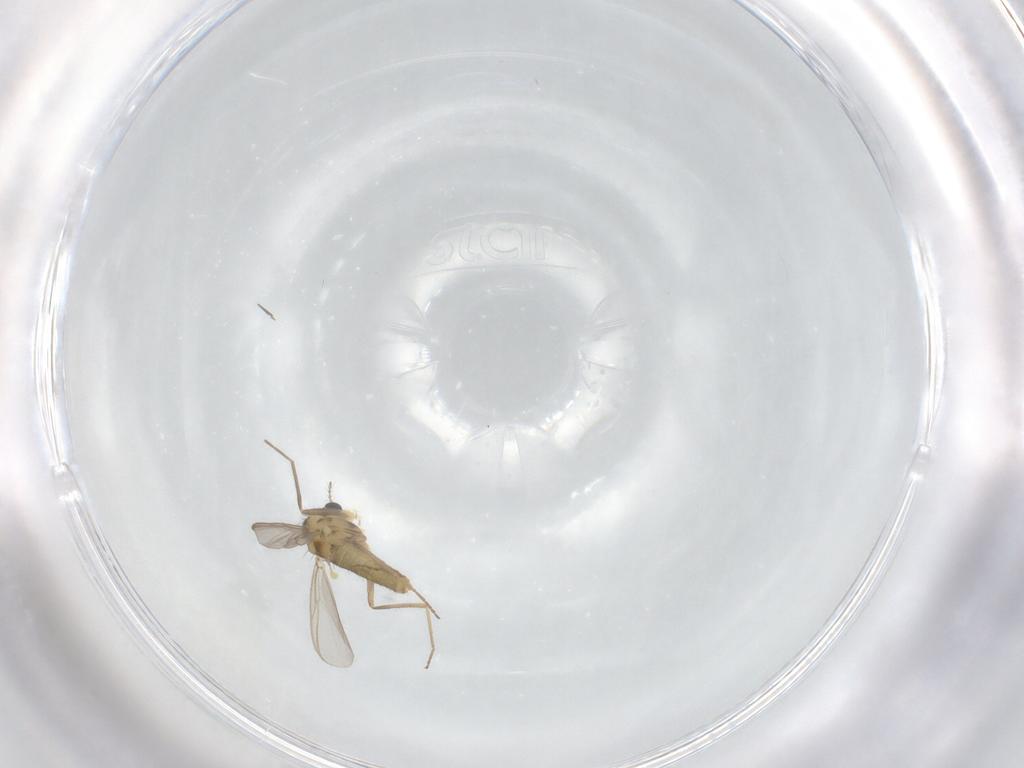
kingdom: Animalia
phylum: Arthropoda
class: Insecta
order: Diptera
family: Chironomidae
